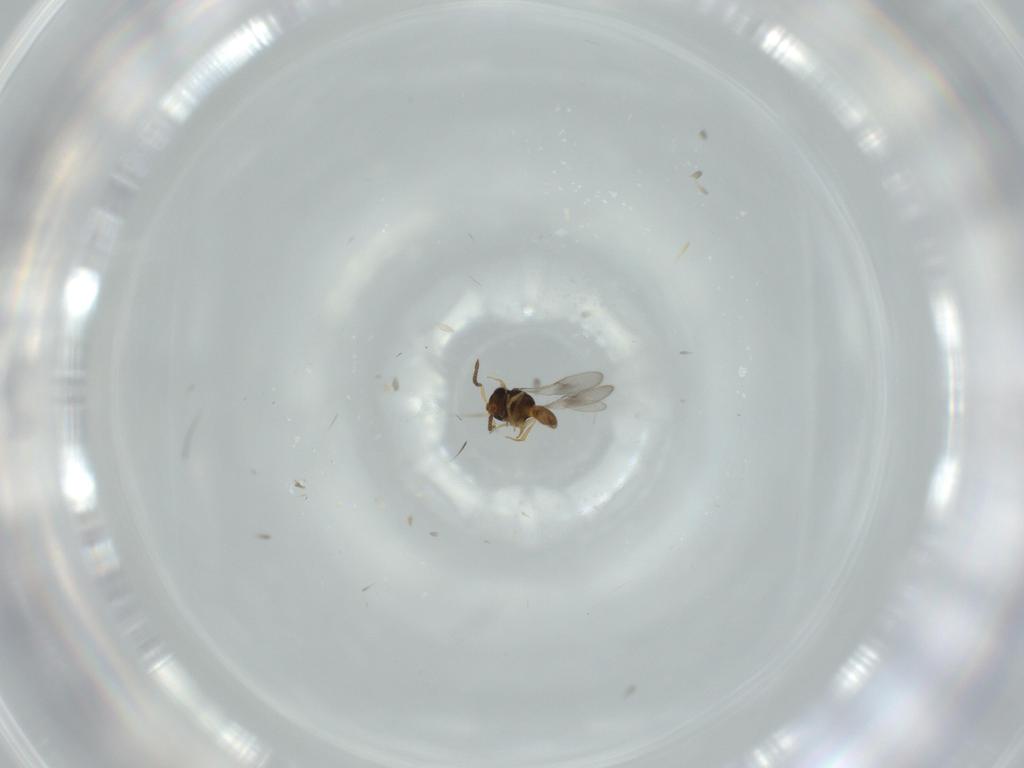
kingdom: Animalia
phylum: Arthropoda
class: Insecta
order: Hymenoptera
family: Scelionidae
